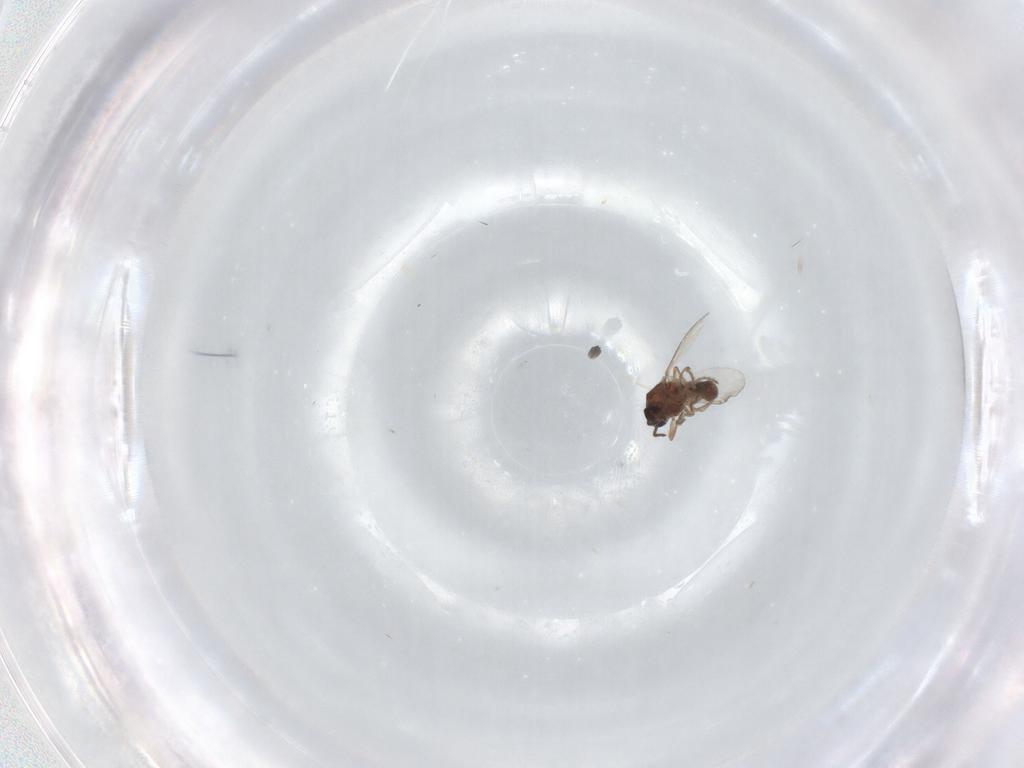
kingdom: Animalia
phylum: Arthropoda
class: Insecta
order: Diptera
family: Ceratopogonidae
